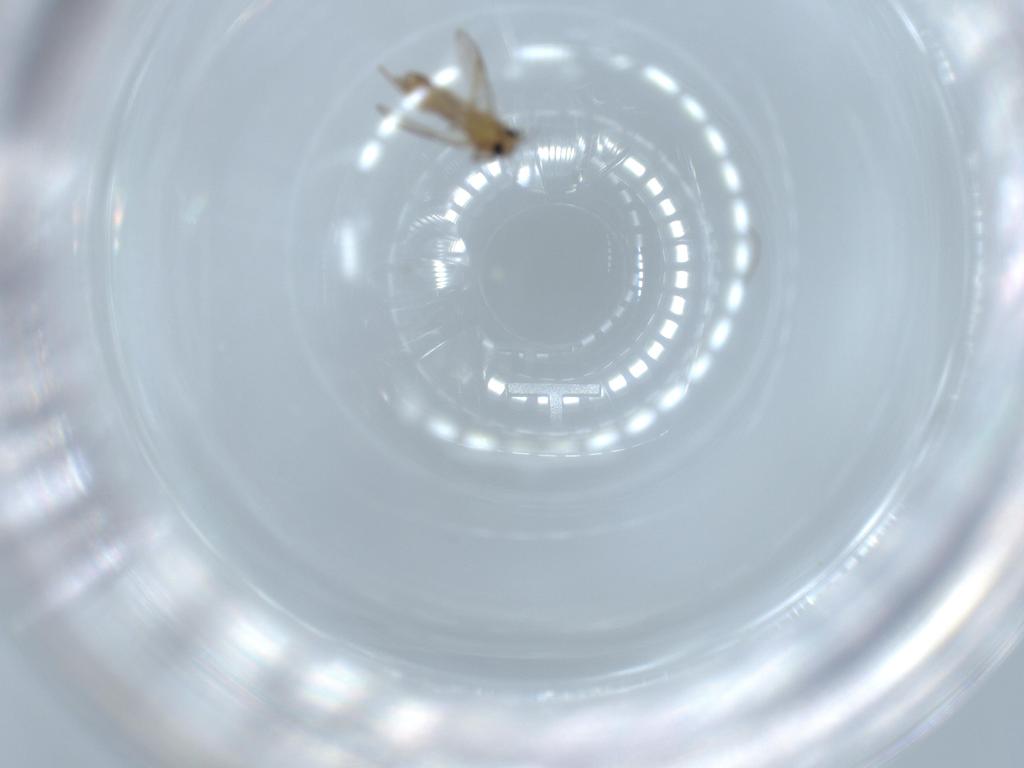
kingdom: Animalia
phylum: Arthropoda
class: Insecta
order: Diptera
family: Chironomidae
